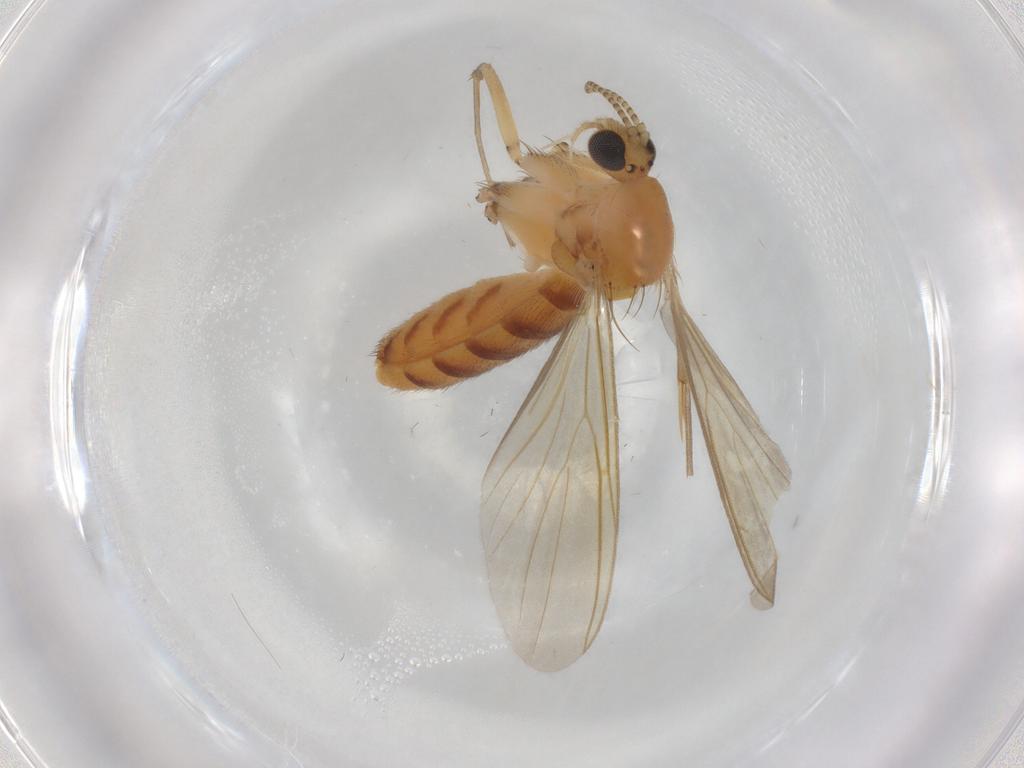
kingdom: Animalia
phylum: Arthropoda
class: Insecta
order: Diptera
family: Mycetophilidae
